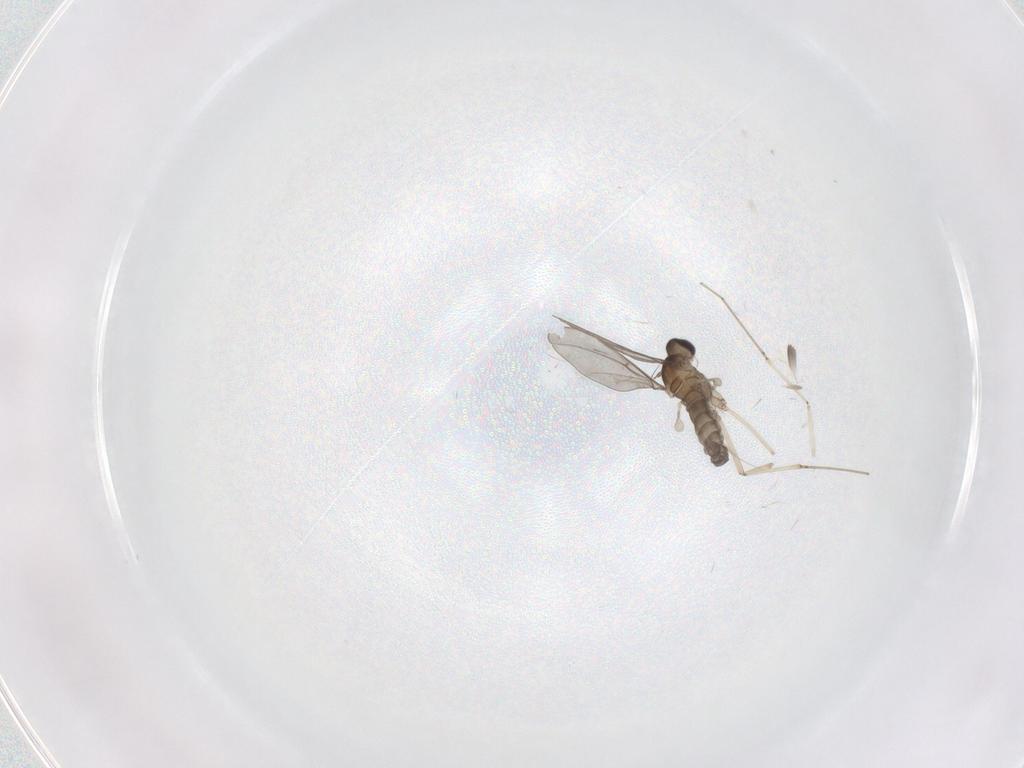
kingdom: Animalia
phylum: Arthropoda
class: Insecta
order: Diptera
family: Cecidomyiidae
